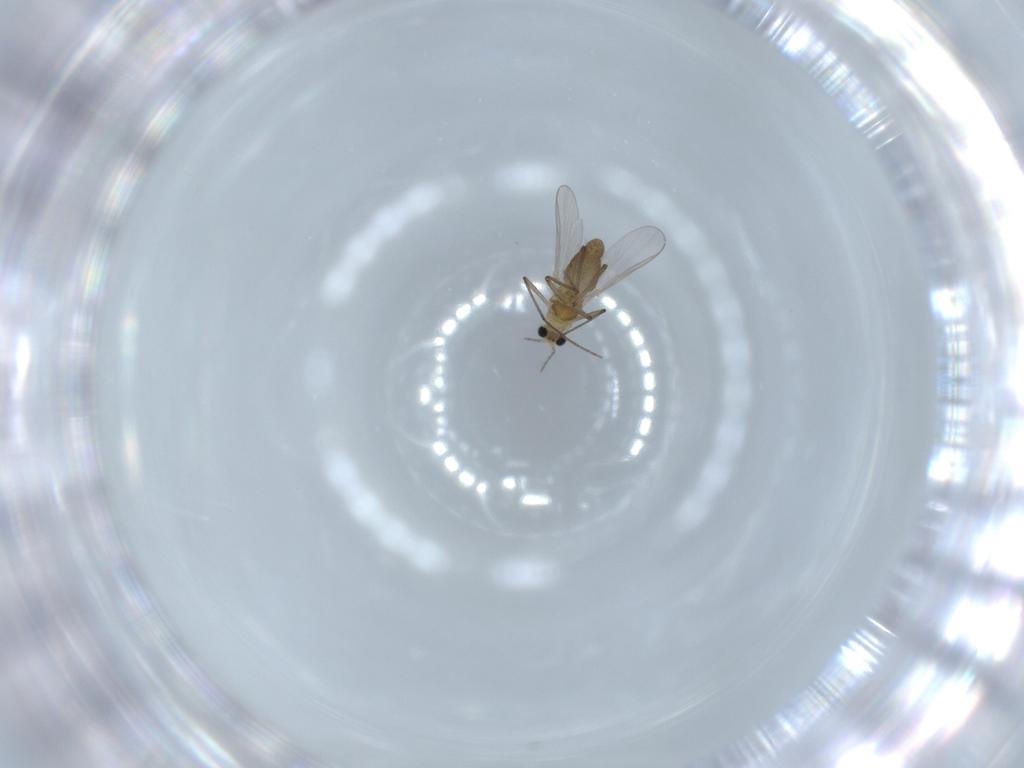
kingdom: Animalia
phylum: Arthropoda
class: Insecta
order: Diptera
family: Chironomidae
